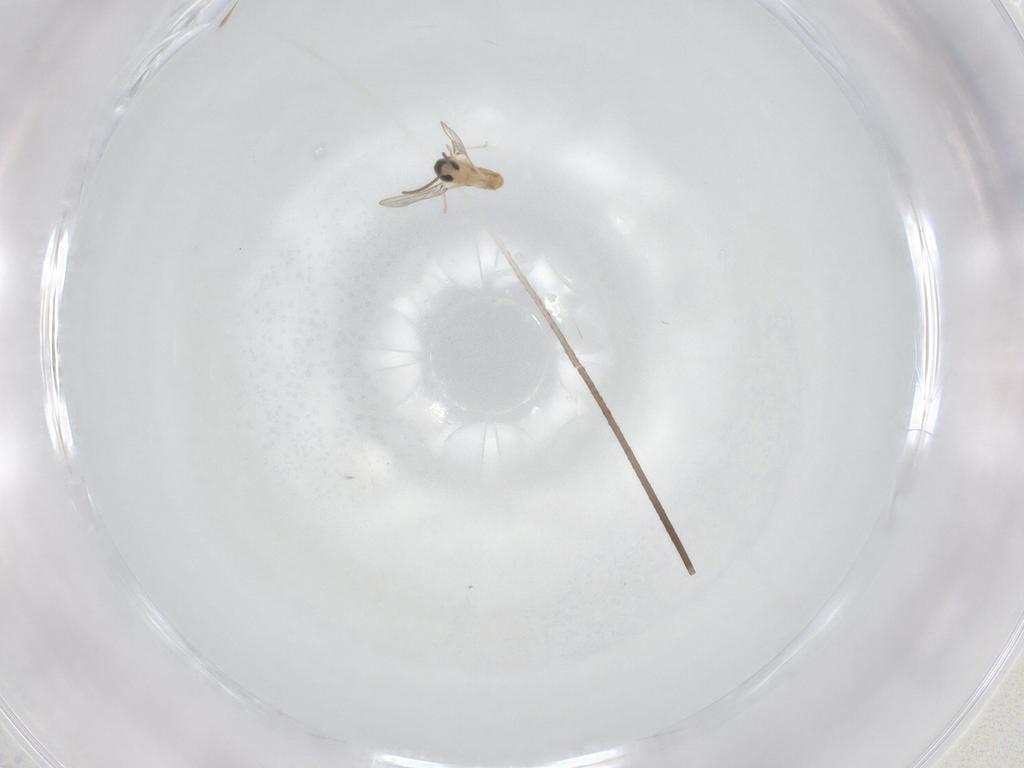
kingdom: Animalia
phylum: Arthropoda
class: Insecta
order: Diptera
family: Cecidomyiidae
